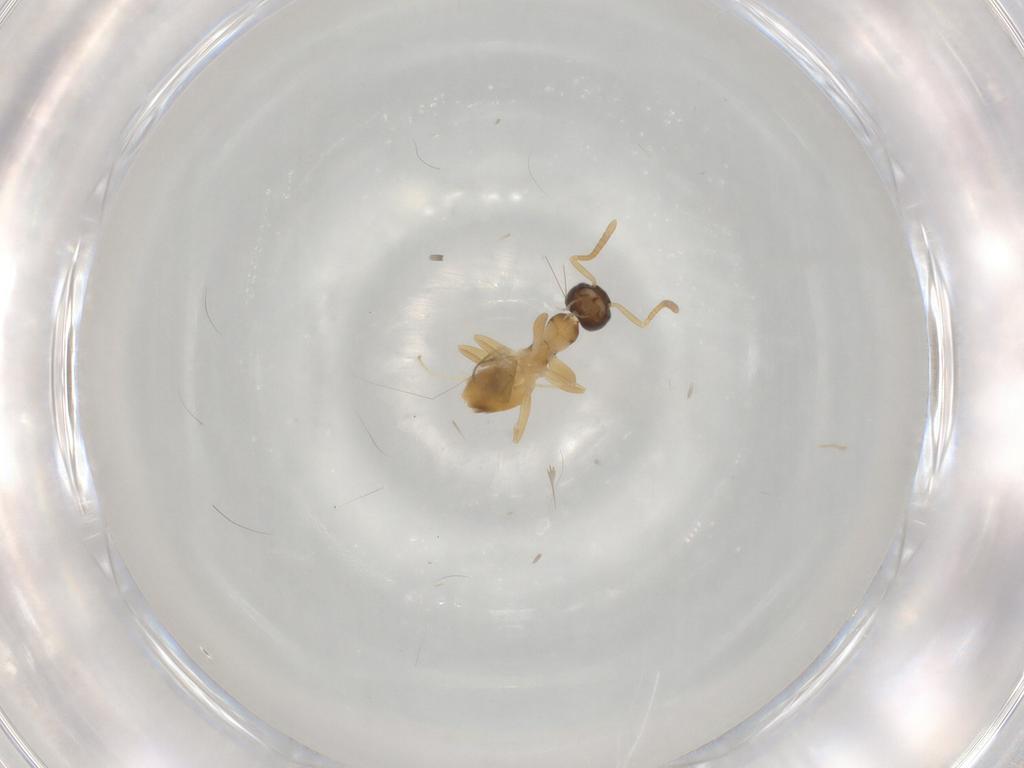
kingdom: Animalia
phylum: Arthropoda
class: Insecta
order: Hymenoptera
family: Formicidae
